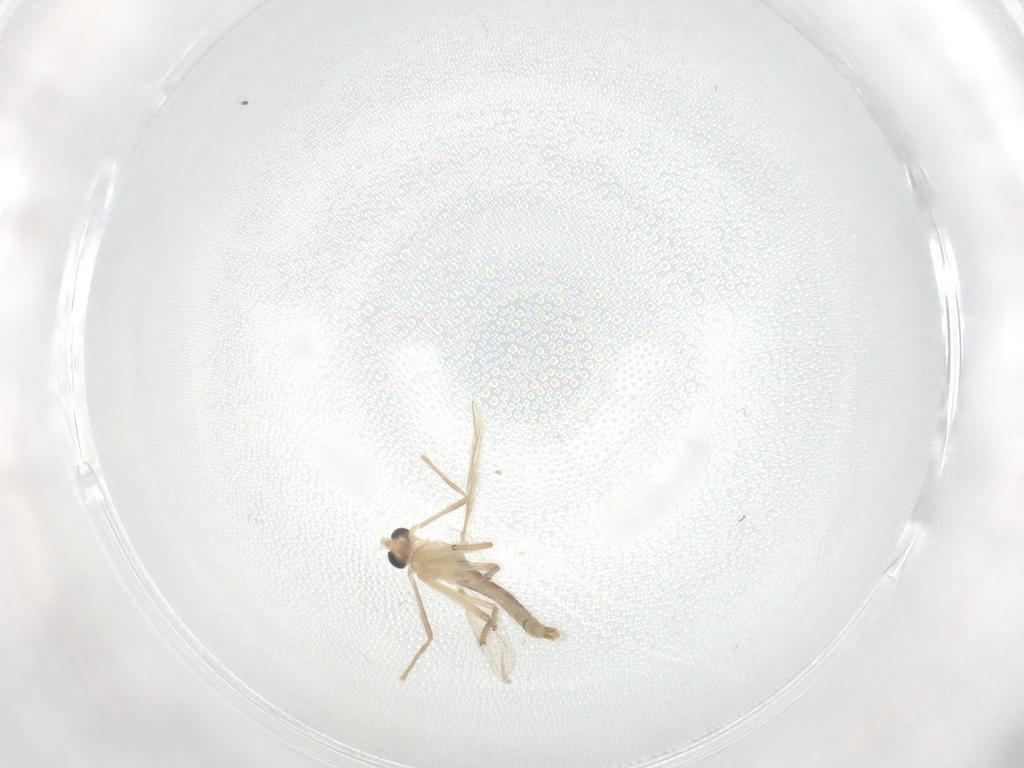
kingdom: Animalia
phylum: Arthropoda
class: Insecta
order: Diptera
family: Chironomidae
